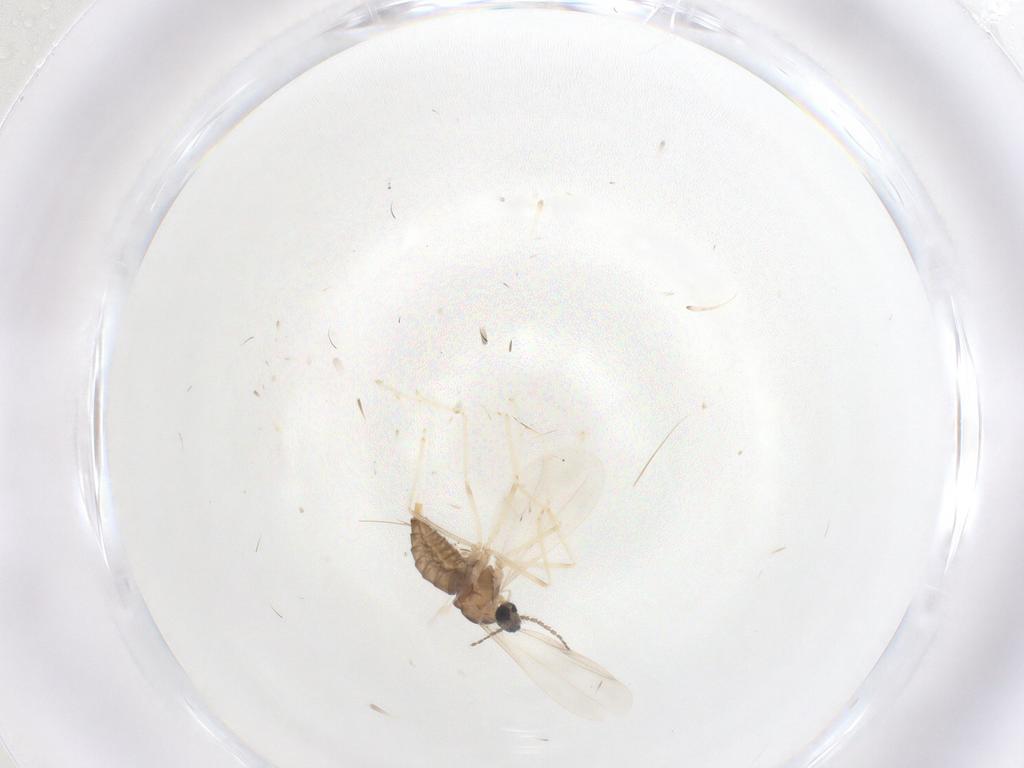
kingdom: Animalia
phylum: Arthropoda
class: Insecta
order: Diptera
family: Cecidomyiidae
